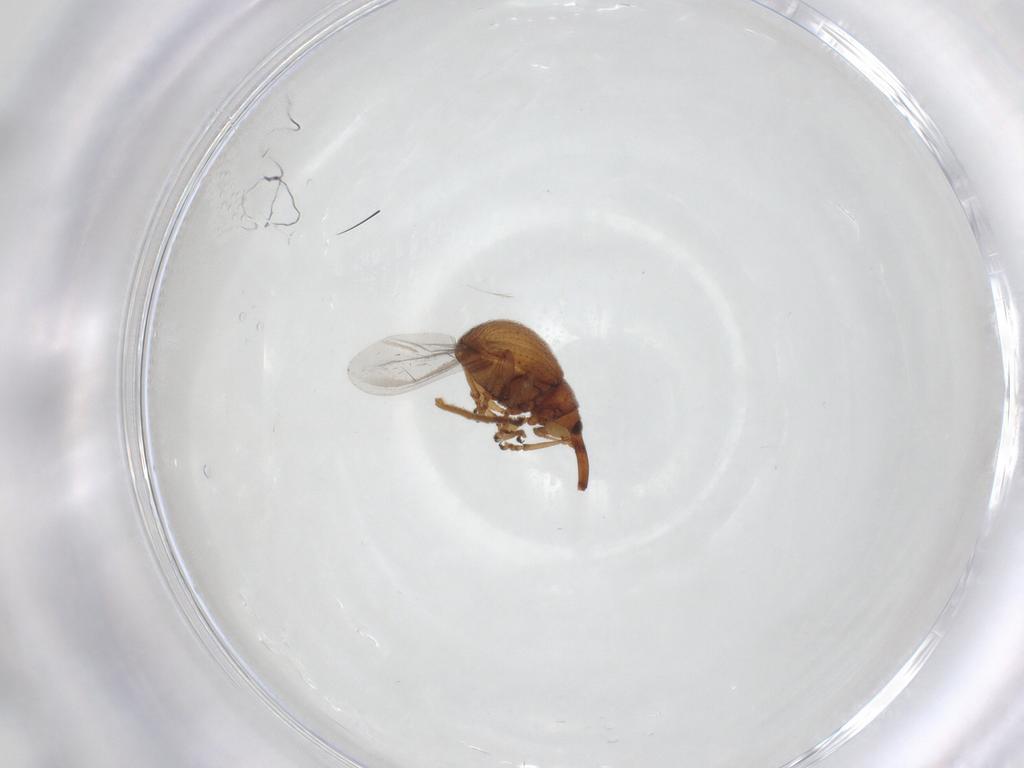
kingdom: Animalia
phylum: Arthropoda
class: Insecta
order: Coleoptera
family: Brentidae
